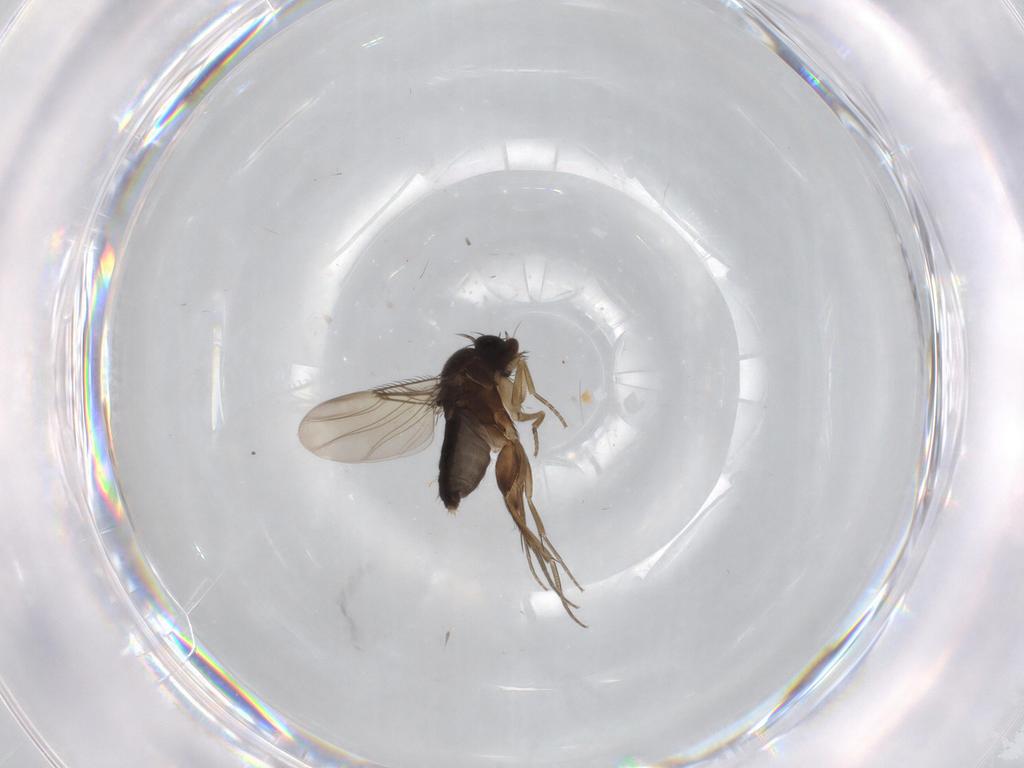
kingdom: Animalia
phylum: Arthropoda
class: Insecta
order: Diptera
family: Phoridae
